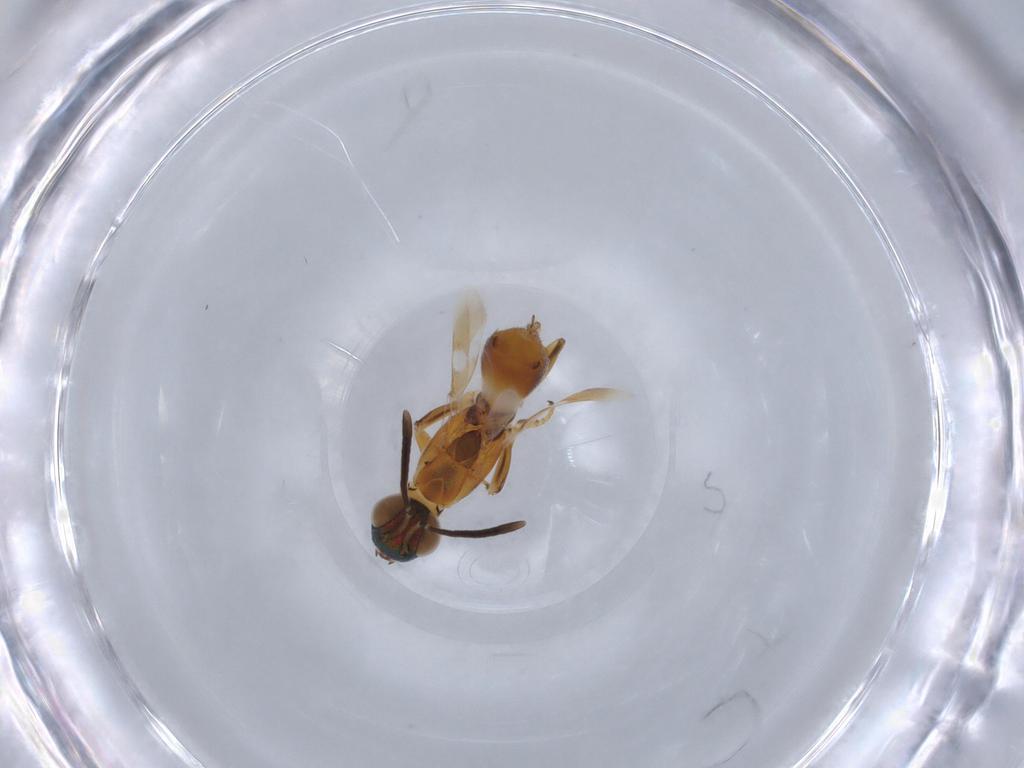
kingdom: Animalia
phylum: Arthropoda
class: Insecta
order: Hymenoptera
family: Eupelmidae
